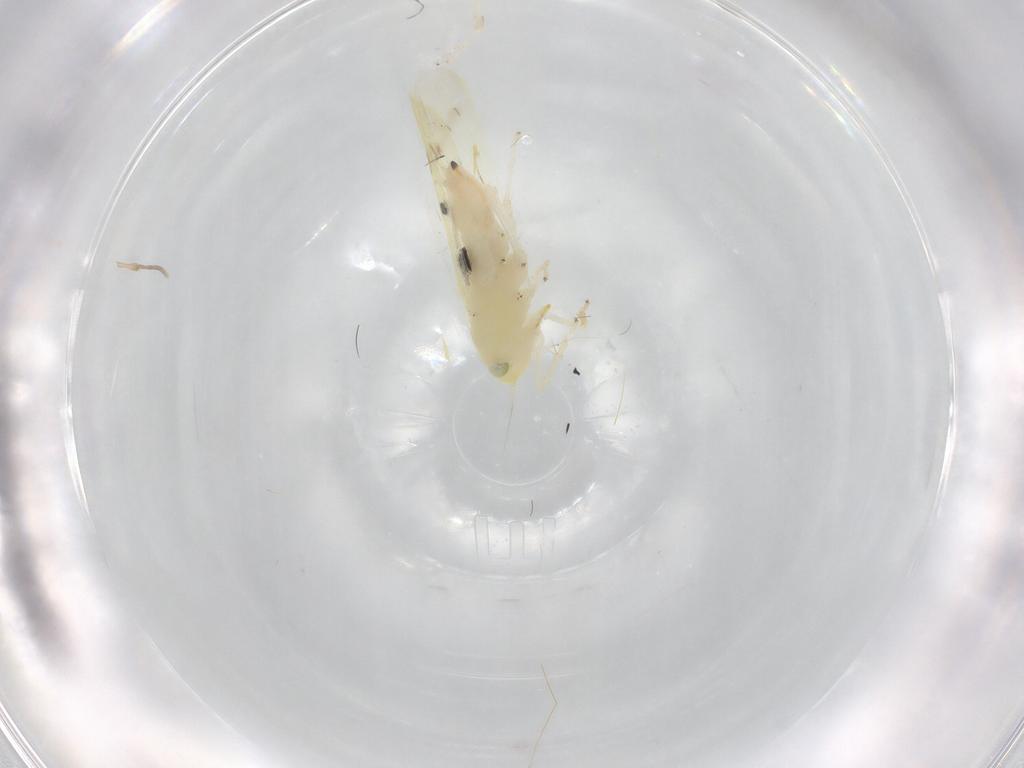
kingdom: Animalia
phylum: Arthropoda
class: Insecta
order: Hemiptera
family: Cicadellidae
